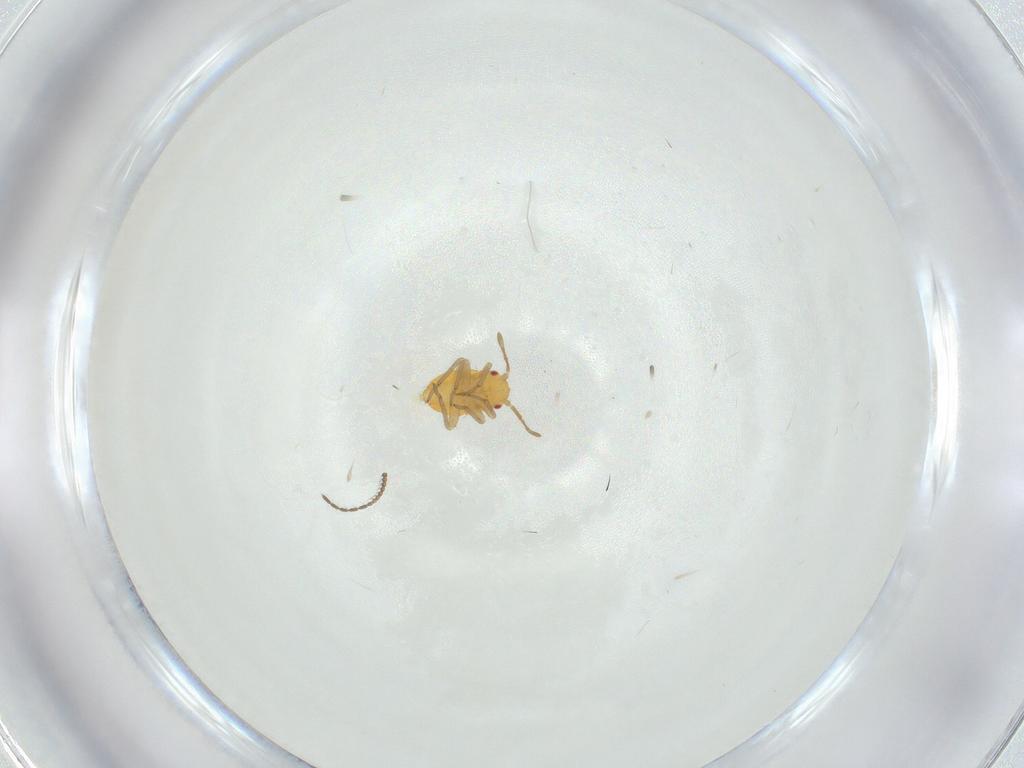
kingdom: Animalia
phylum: Arthropoda
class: Insecta
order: Hemiptera
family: Miridae
